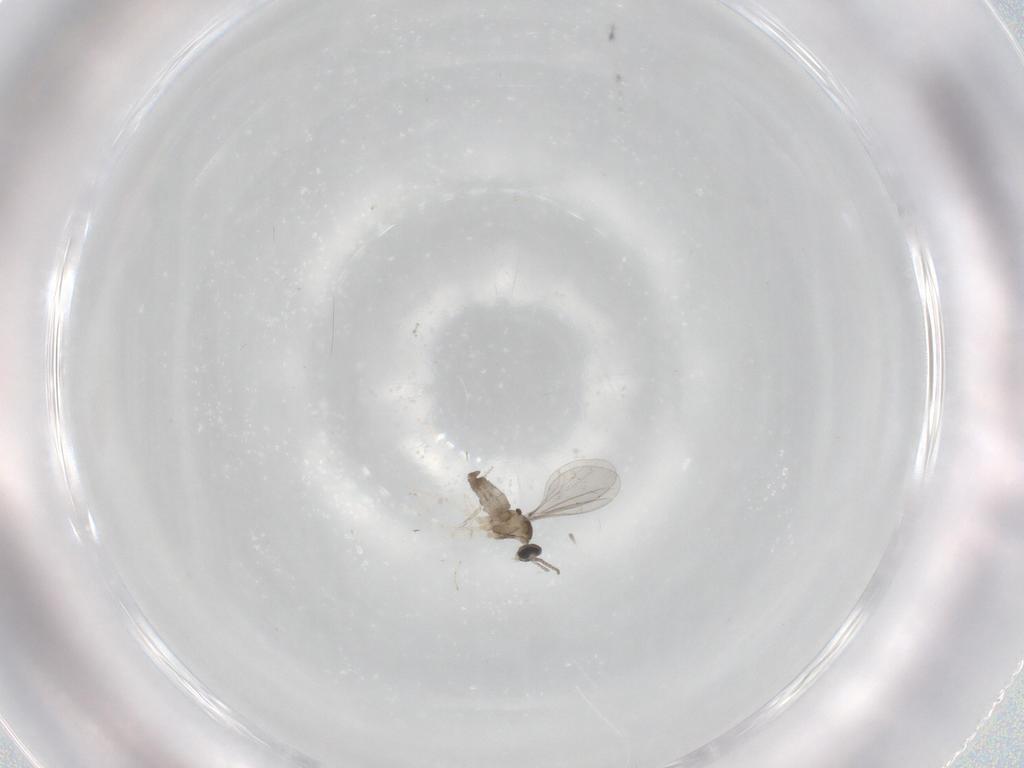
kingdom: Animalia
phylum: Arthropoda
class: Insecta
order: Diptera
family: Cecidomyiidae
